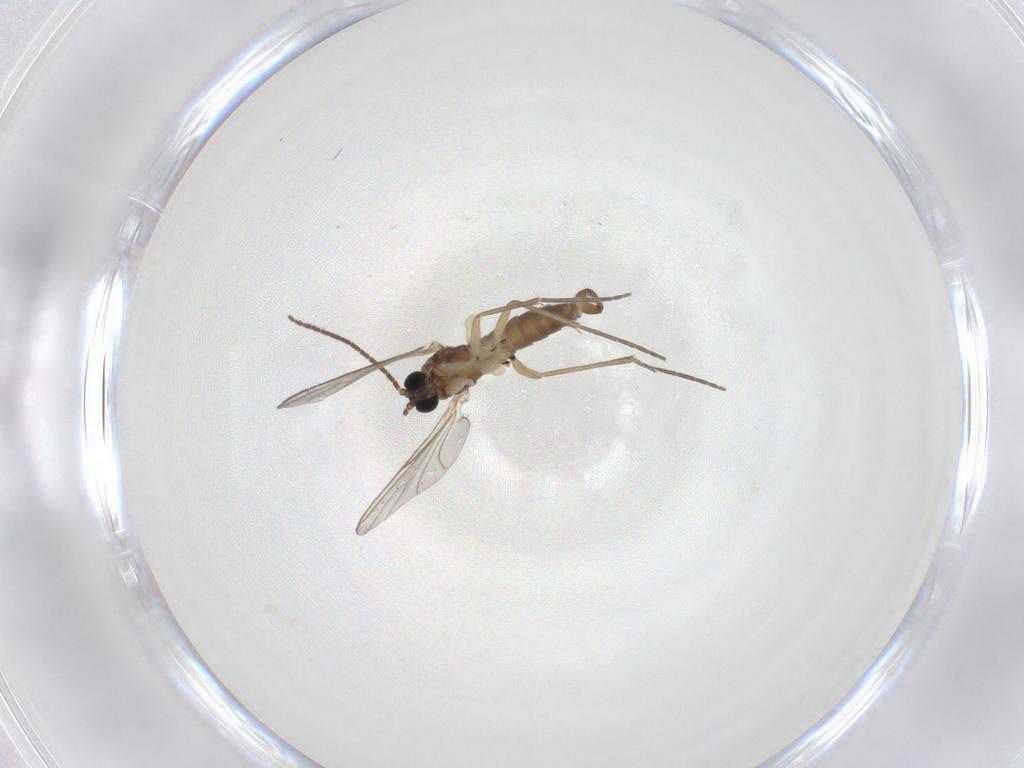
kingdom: Animalia
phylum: Arthropoda
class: Insecta
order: Diptera
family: Sciaridae
